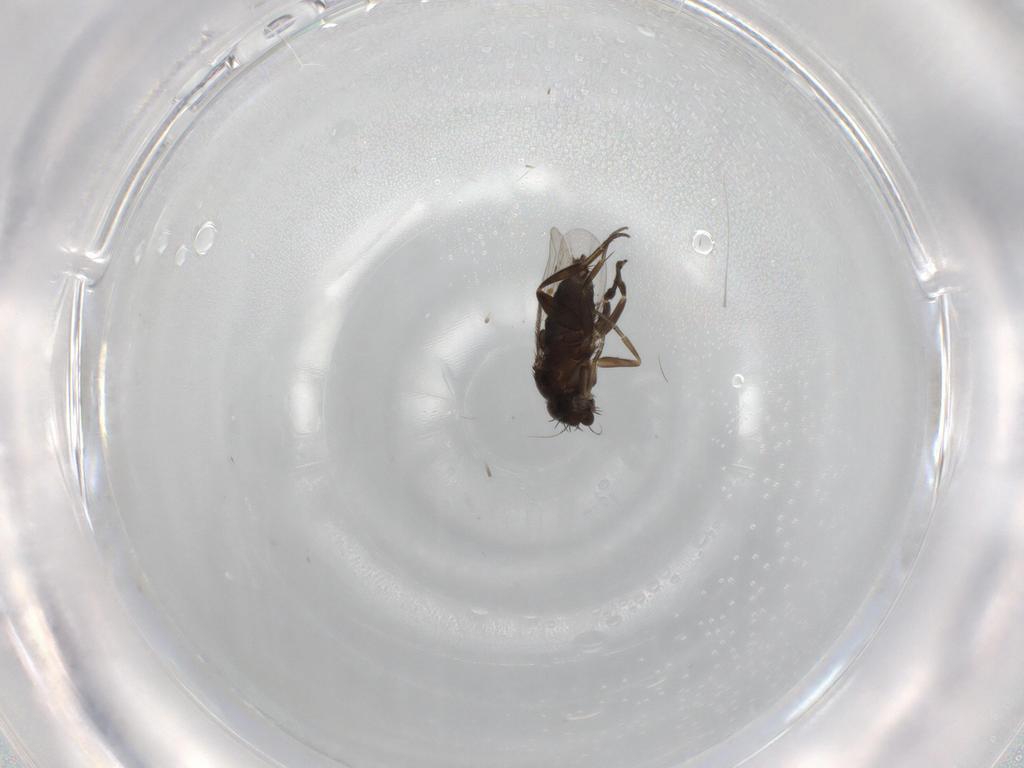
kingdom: Animalia
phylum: Arthropoda
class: Insecta
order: Diptera
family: Phoridae
